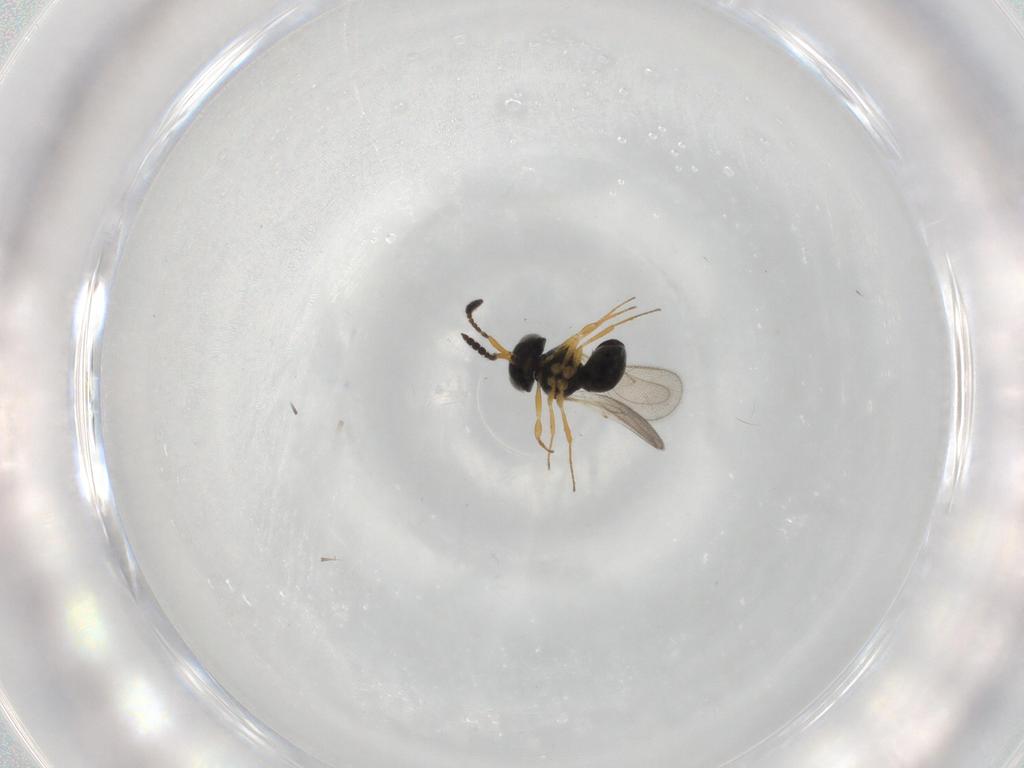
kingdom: Animalia
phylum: Arthropoda
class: Insecta
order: Hymenoptera
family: Scelionidae
